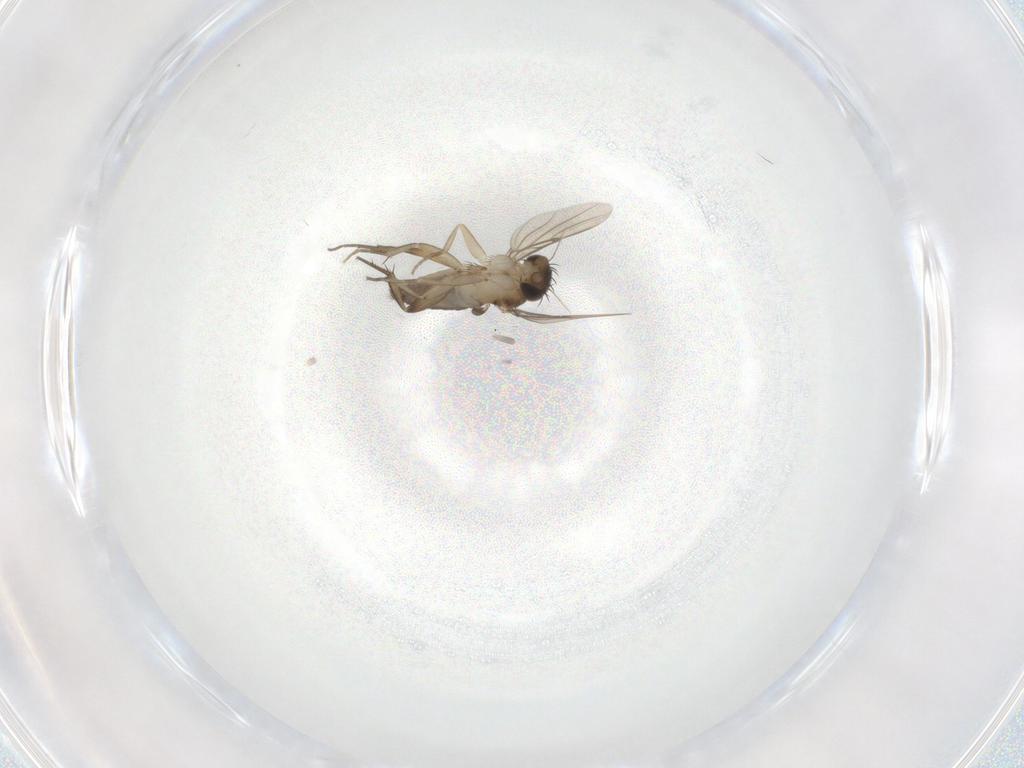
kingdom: Animalia
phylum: Arthropoda
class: Insecta
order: Diptera
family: Phoridae
